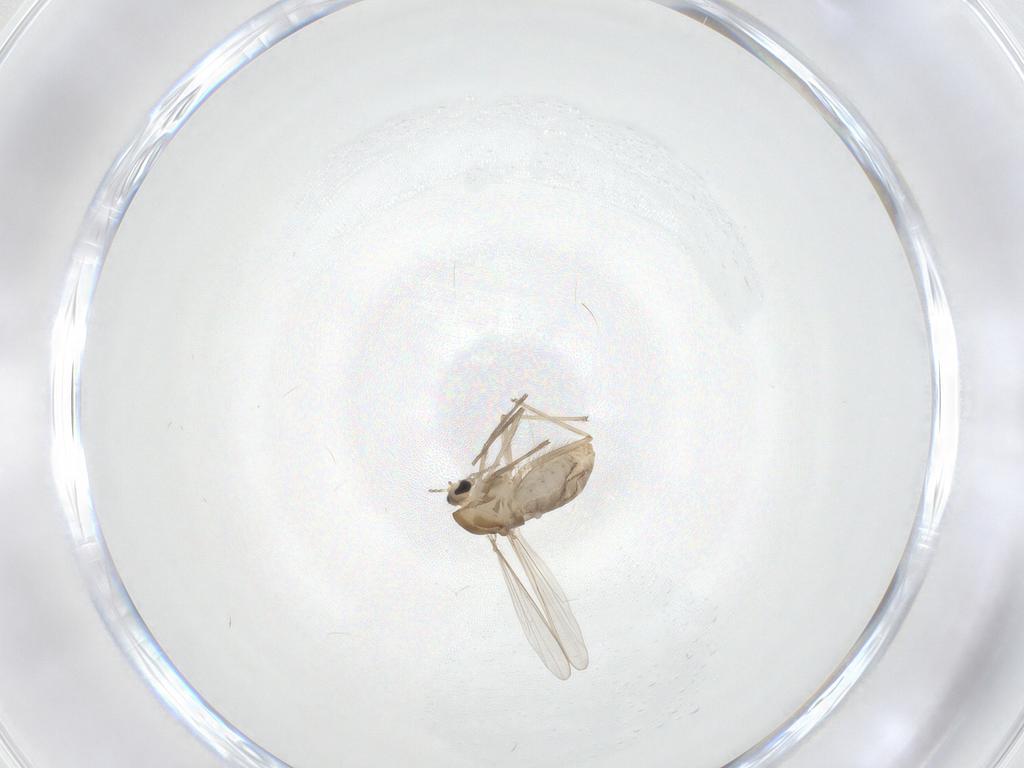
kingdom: Animalia
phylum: Arthropoda
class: Insecta
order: Diptera
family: Chironomidae
